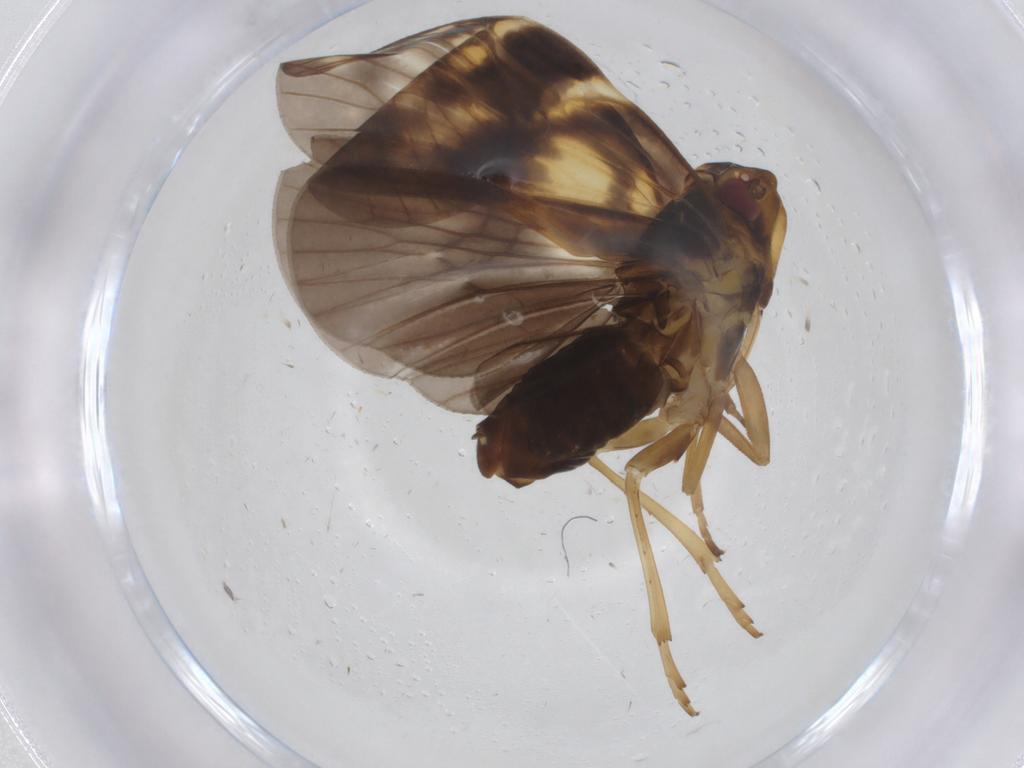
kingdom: Animalia
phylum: Arthropoda
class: Insecta
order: Hemiptera
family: Cixiidae
